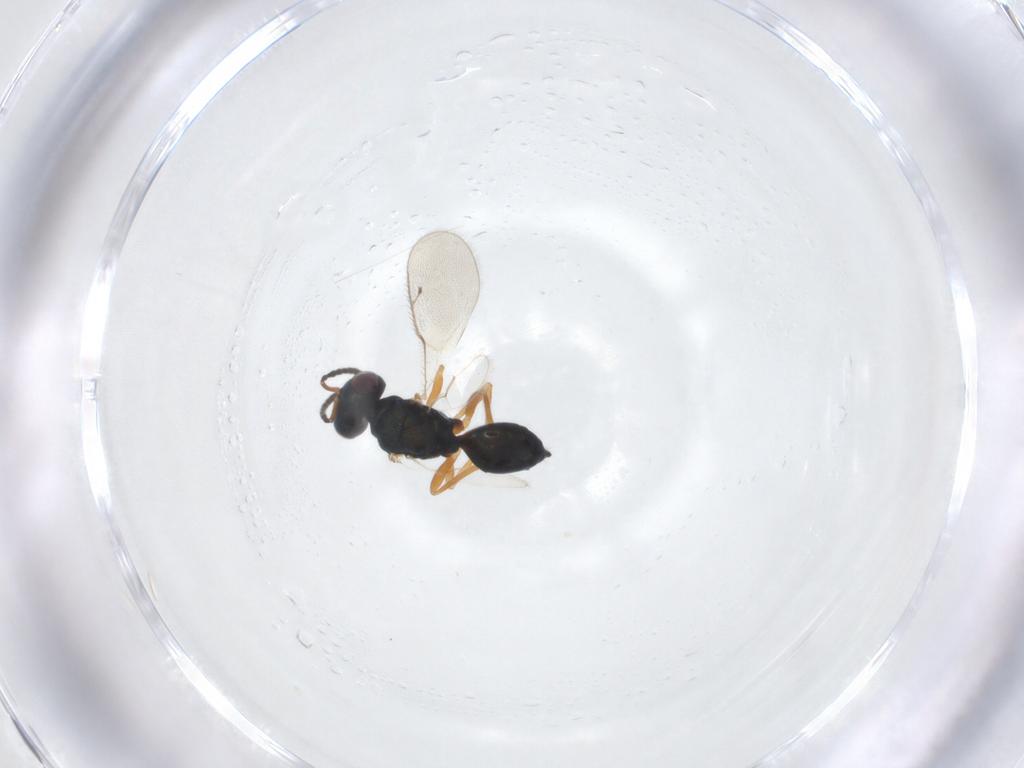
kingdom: Animalia
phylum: Arthropoda
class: Insecta
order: Hymenoptera
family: Pteromalidae
